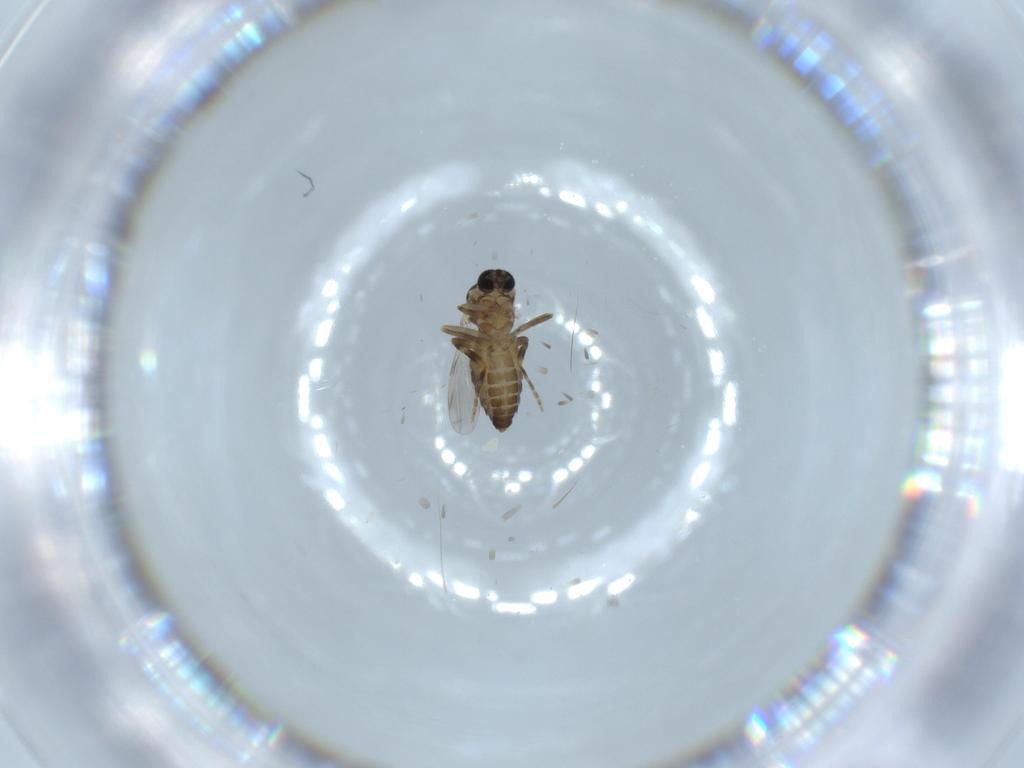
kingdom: Animalia
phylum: Arthropoda
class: Insecta
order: Diptera
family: Ceratopogonidae
